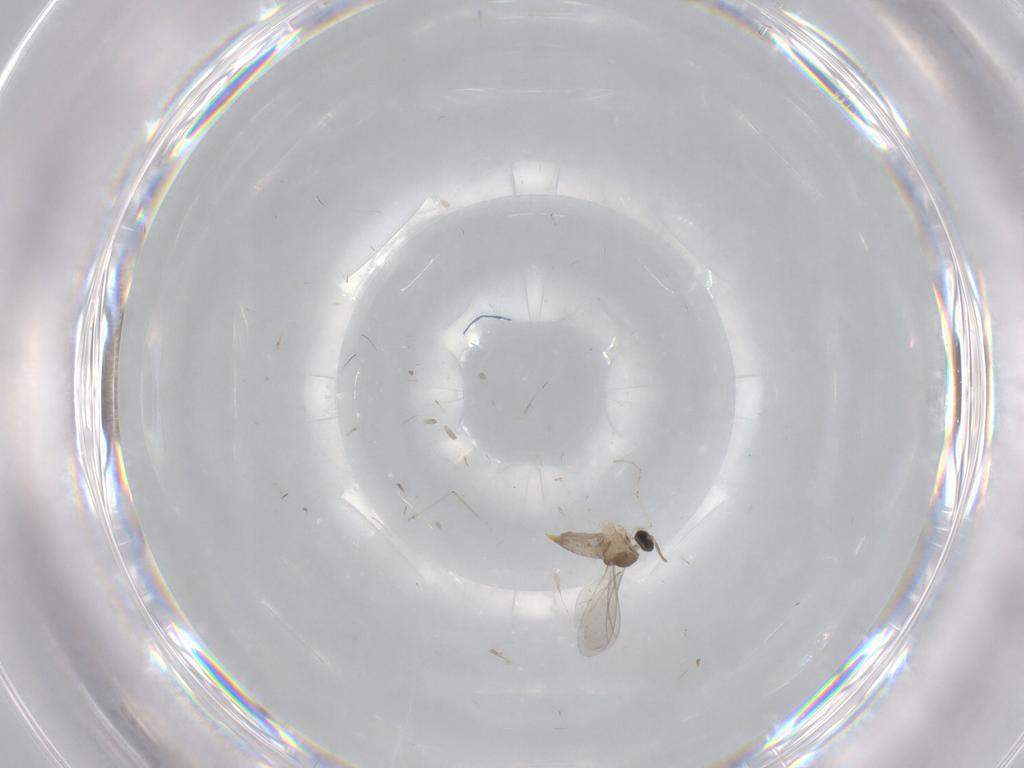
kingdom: Animalia
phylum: Arthropoda
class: Insecta
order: Diptera
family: Cecidomyiidae
